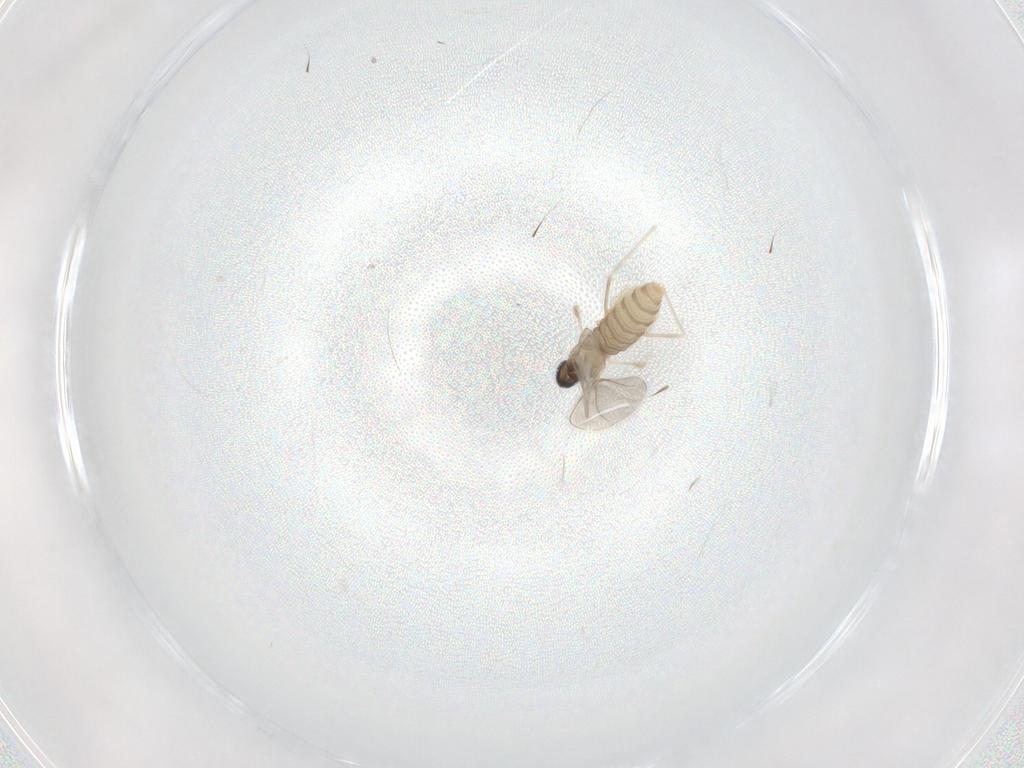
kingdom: Animalia
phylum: Arthropoda
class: Insecta
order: Diptera
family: Cecidomyiidae
